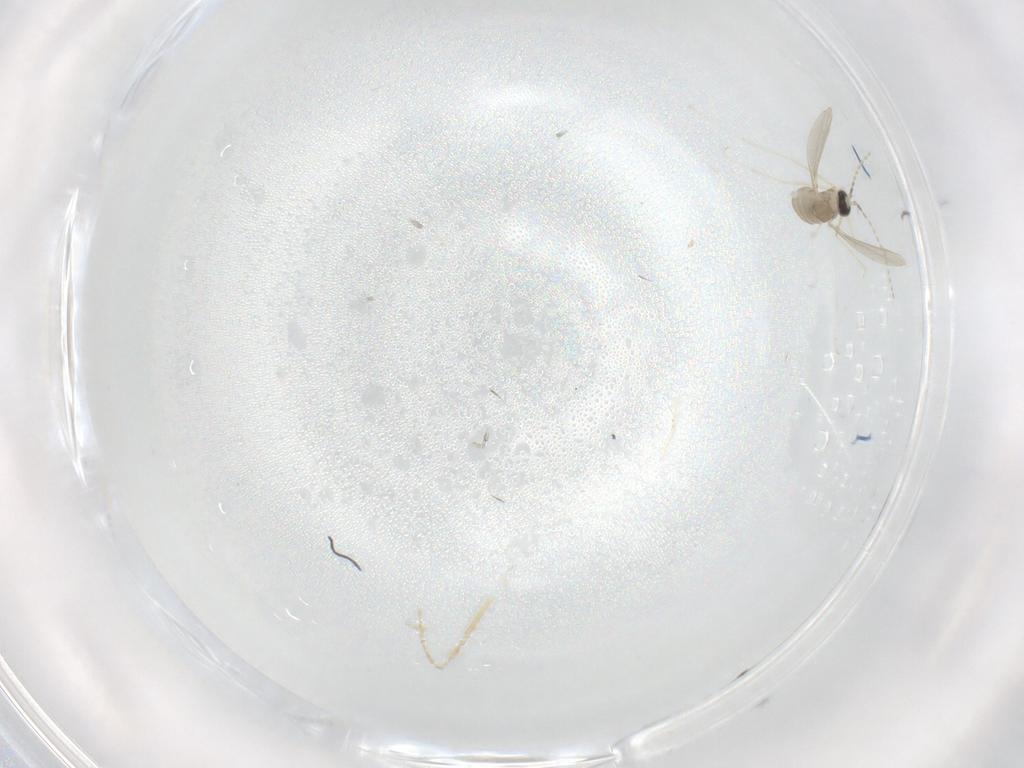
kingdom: Animalia
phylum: Arthropoda
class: Insecta
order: Diptera
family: Cecidomyiidae
